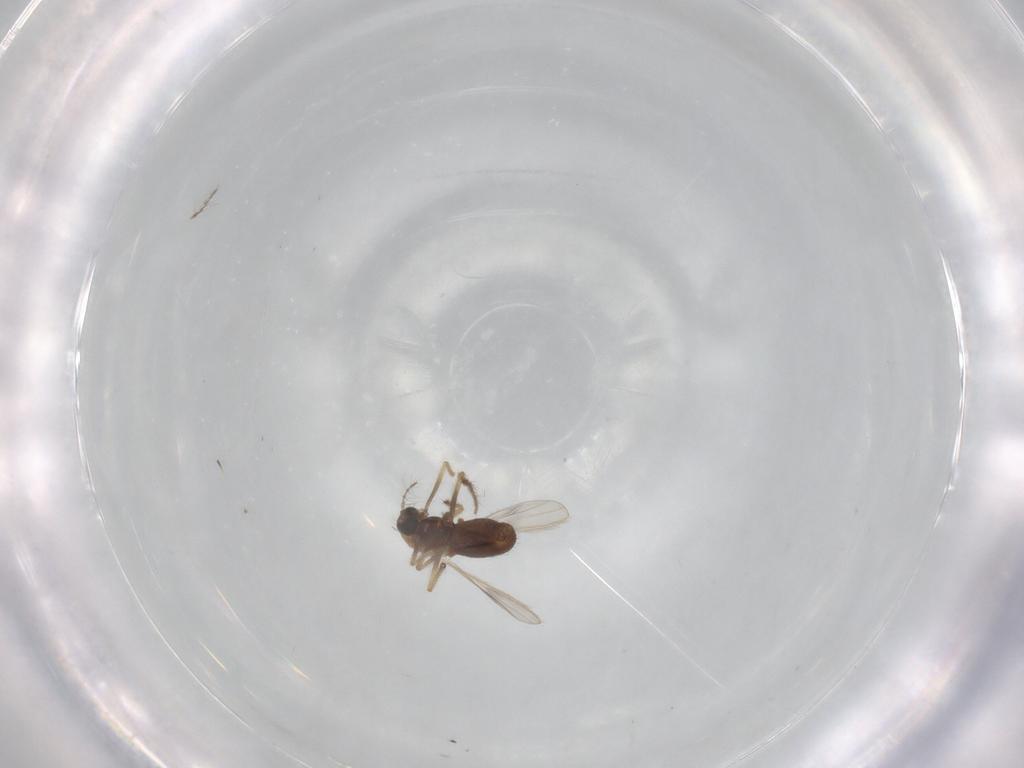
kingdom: Animalia
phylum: Arthropoda
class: Insecta
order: Diptera
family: Chironomidae
